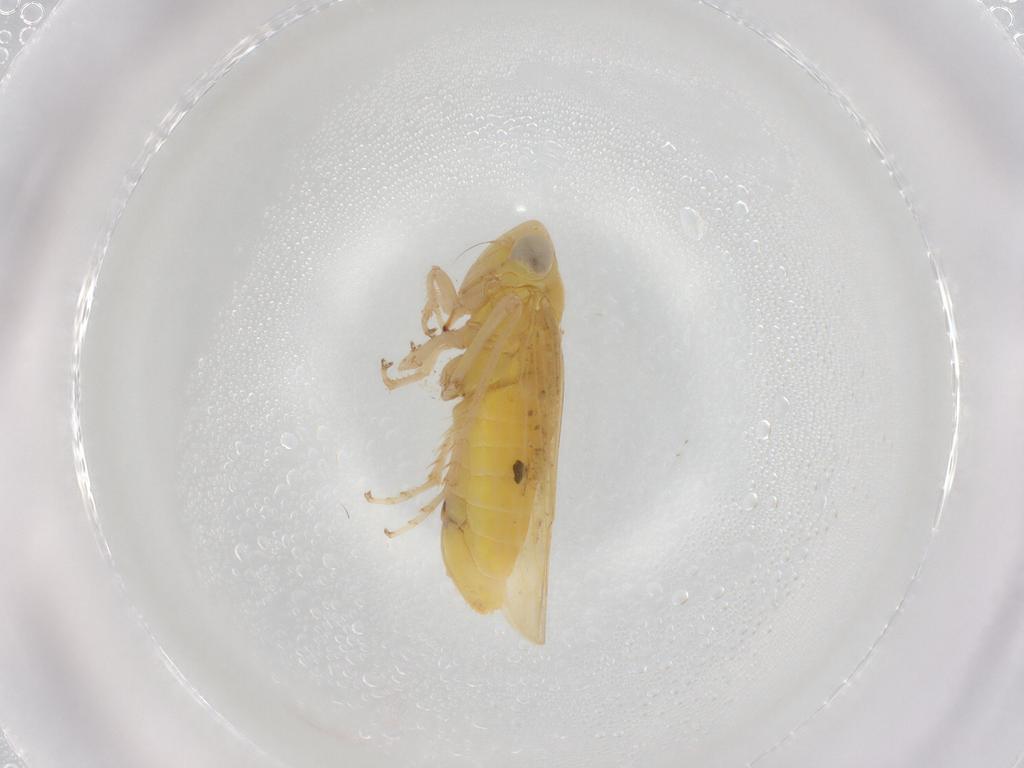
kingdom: Animalia
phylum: Arthropoda
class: Insecta
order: Hemiptera
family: Cicadellidae
